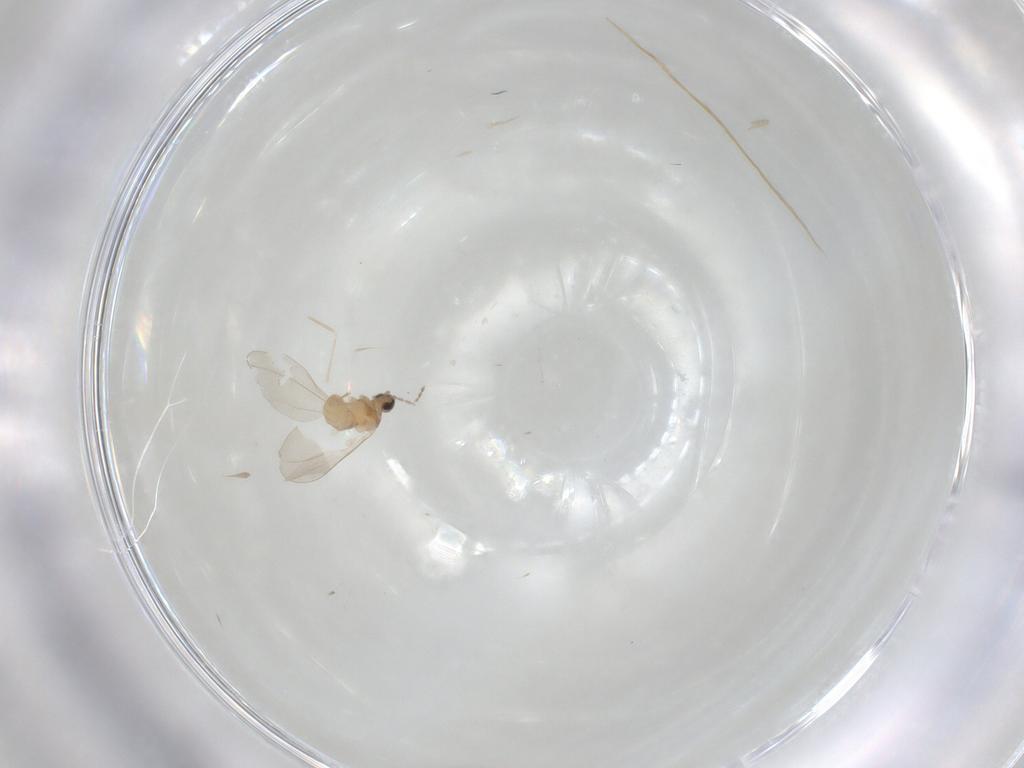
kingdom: Animalia
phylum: Arthropoda
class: Insecta
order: Diptera
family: Cecidomyiidae
